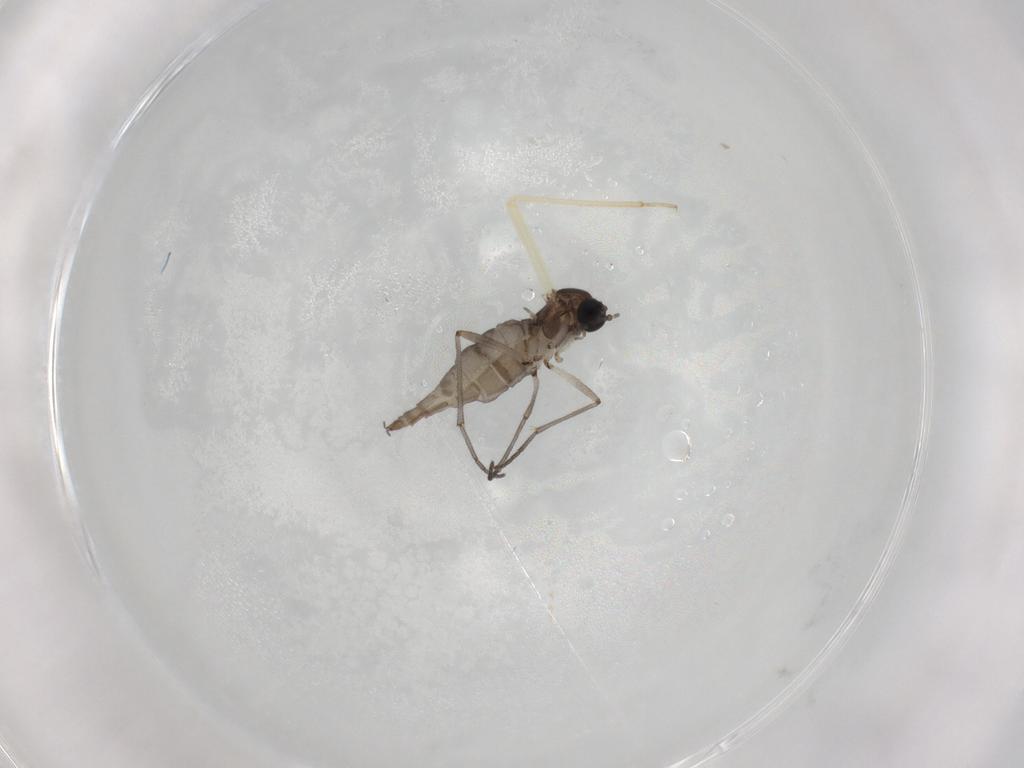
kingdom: Animalia
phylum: Arthropoda
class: Insecta
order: Diptera
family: Sciaridae
